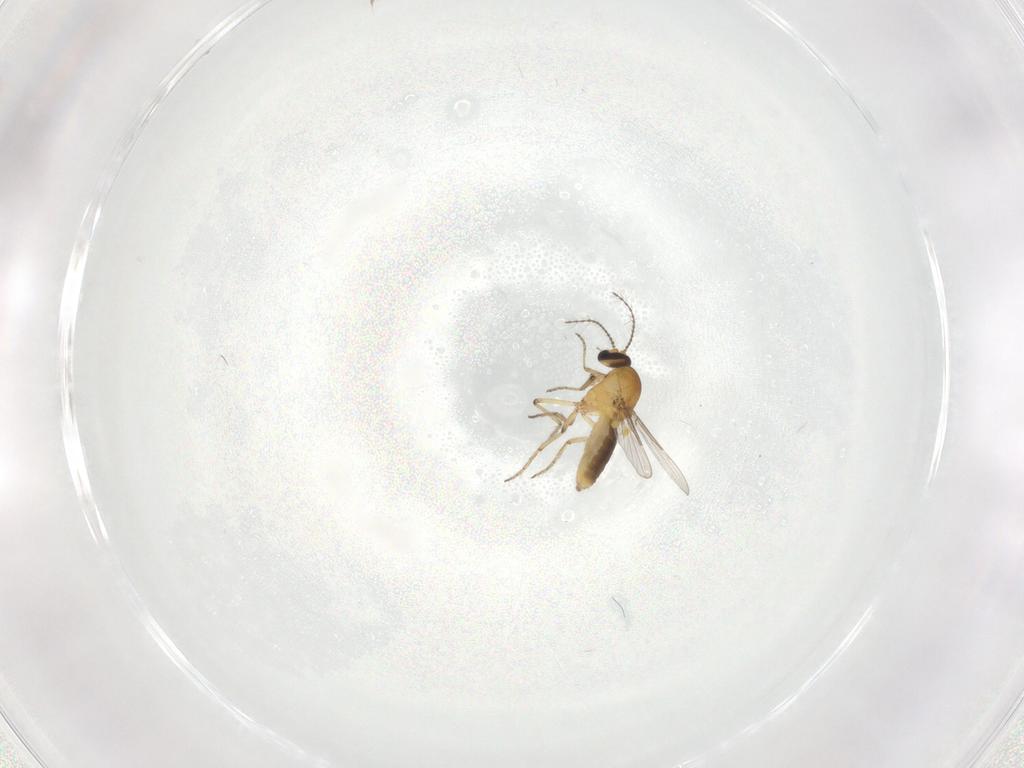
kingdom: Animalia
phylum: Arthropoda
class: Insecta
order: Diptera
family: Ceratopogonidae
